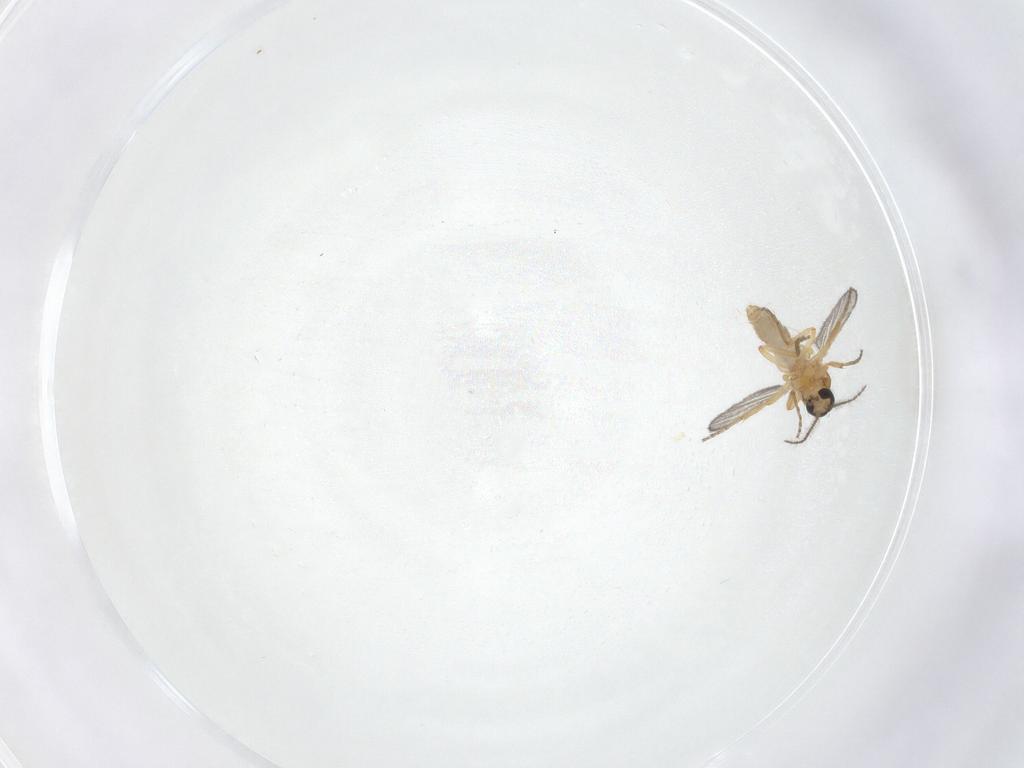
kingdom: Animalia
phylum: Arthropoda
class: Insecta
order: Diptera
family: Ceratopogonidae
